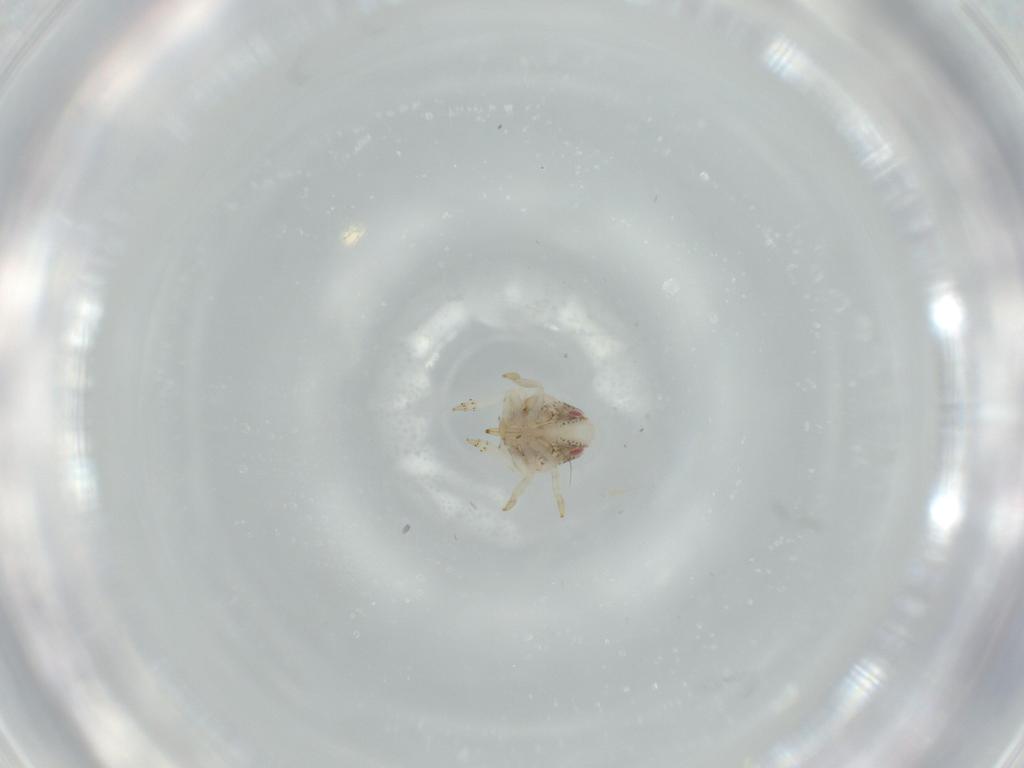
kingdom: Animalia
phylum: Arthropoda
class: Insecta
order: Hemiptera
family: Acanaloniidae
